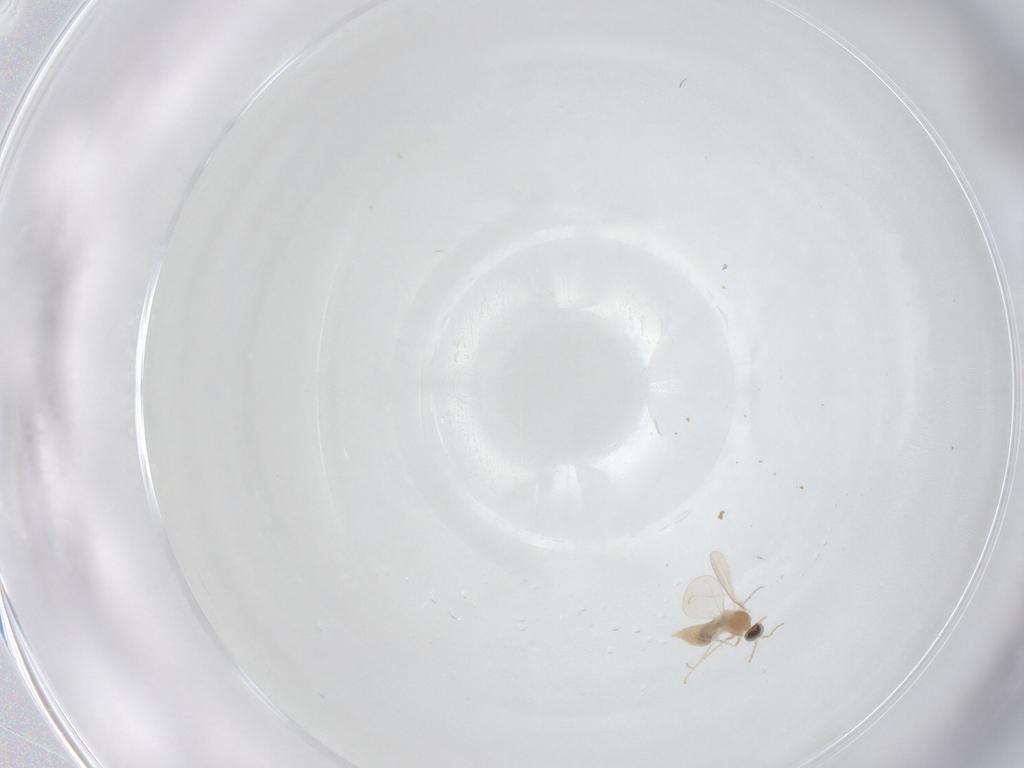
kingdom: Animalia
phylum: Arthropoda
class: Insecta
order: Diptera
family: Cecidomyiidae
